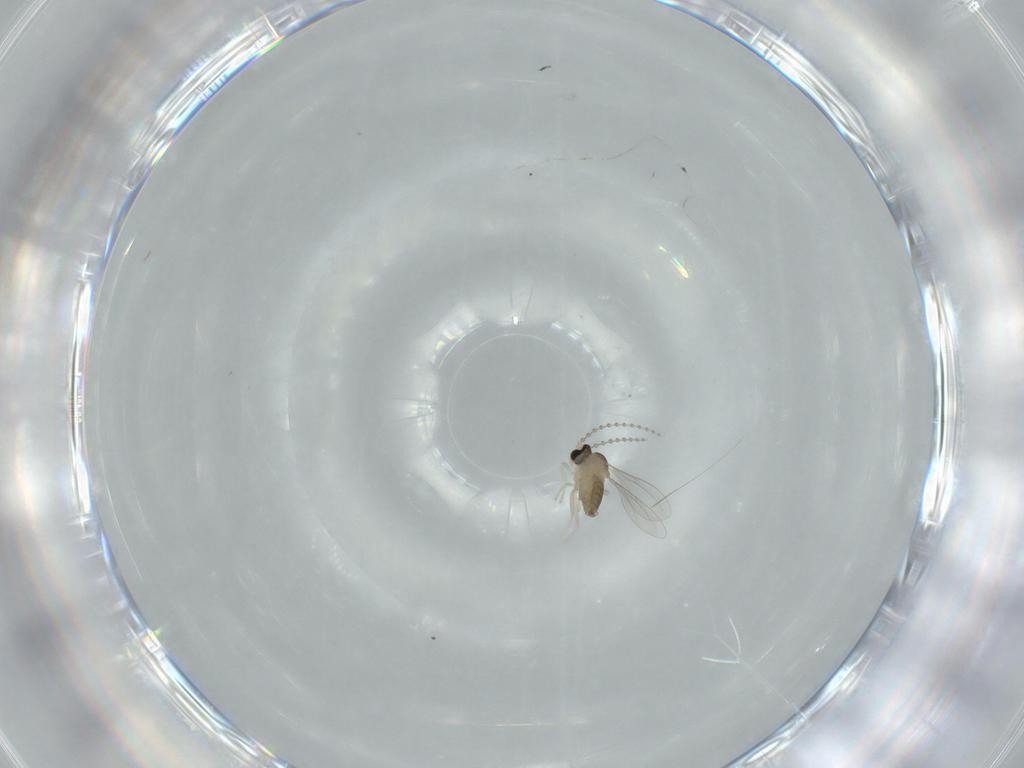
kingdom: Animalia
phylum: Arthropoda
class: Insecta
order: Diptera
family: Cecidomyiidae
